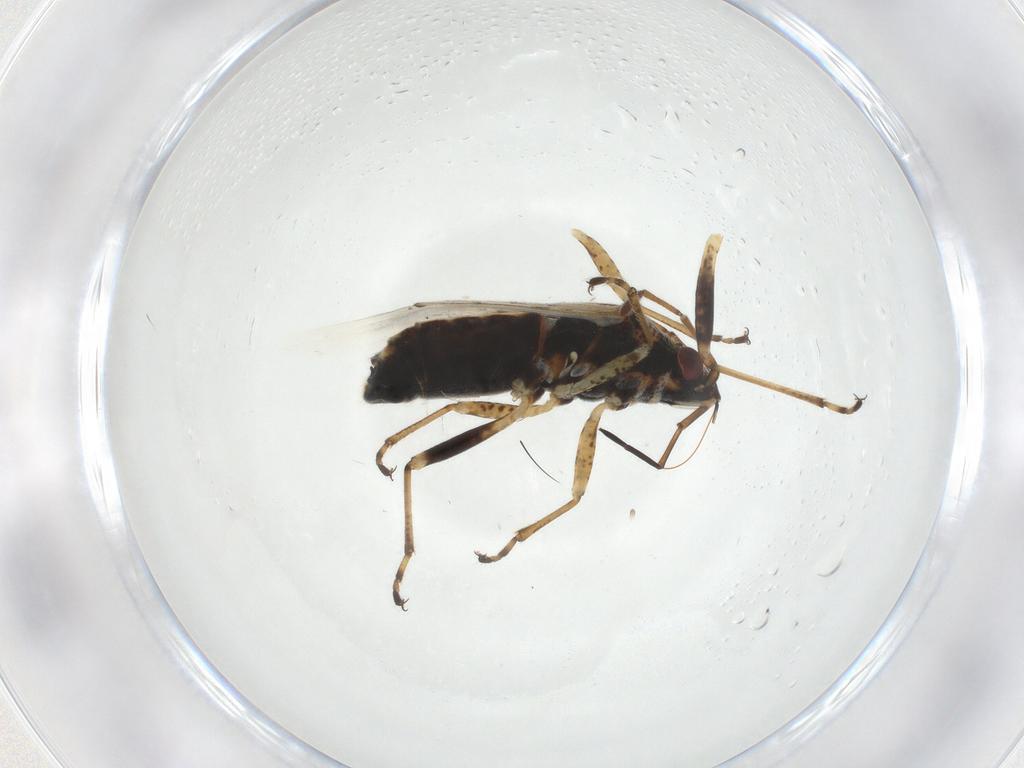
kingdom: Animalia
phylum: Arthropoda
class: Insecta
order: Hemiptera
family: Lygaeidae
